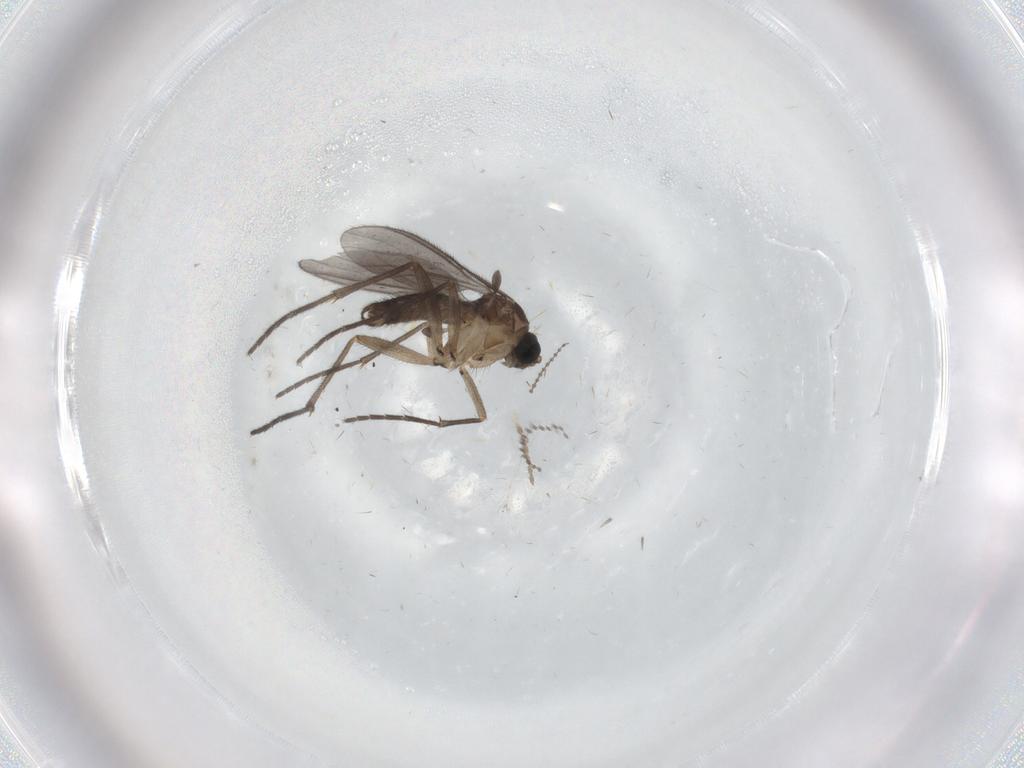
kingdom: Animalia
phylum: Arthropoda
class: Insecta
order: Diptera
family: Sciaridae
